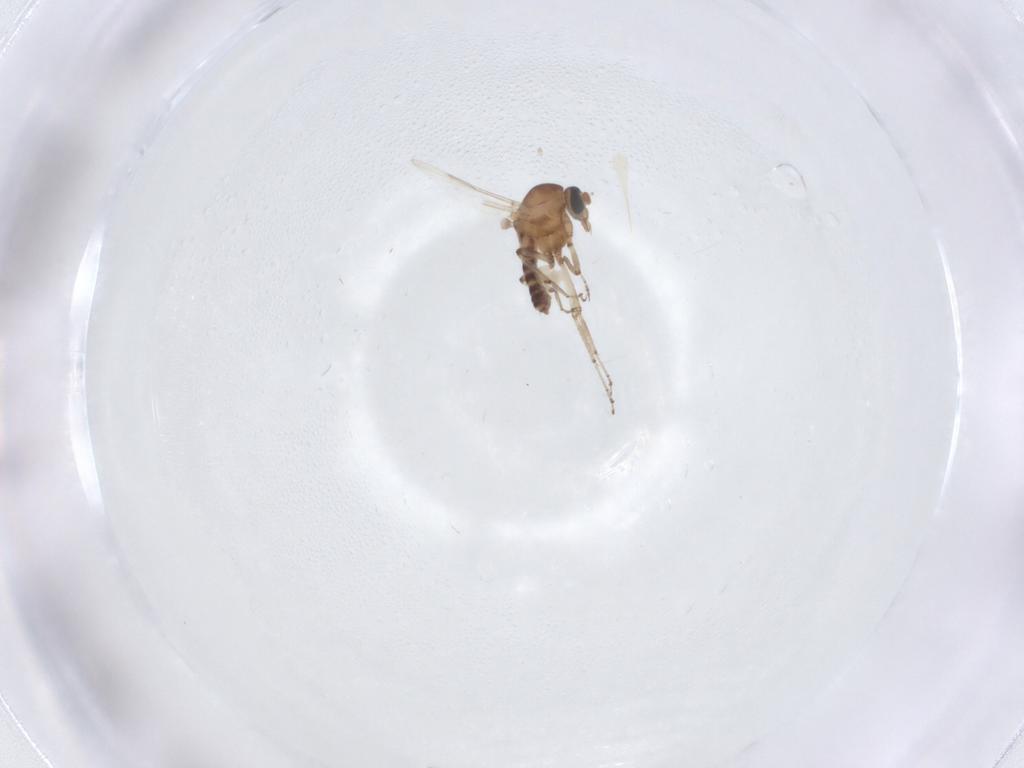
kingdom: Animalia
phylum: Arthropoda
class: Insecta
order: Diptera
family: Ceratopogonidae
